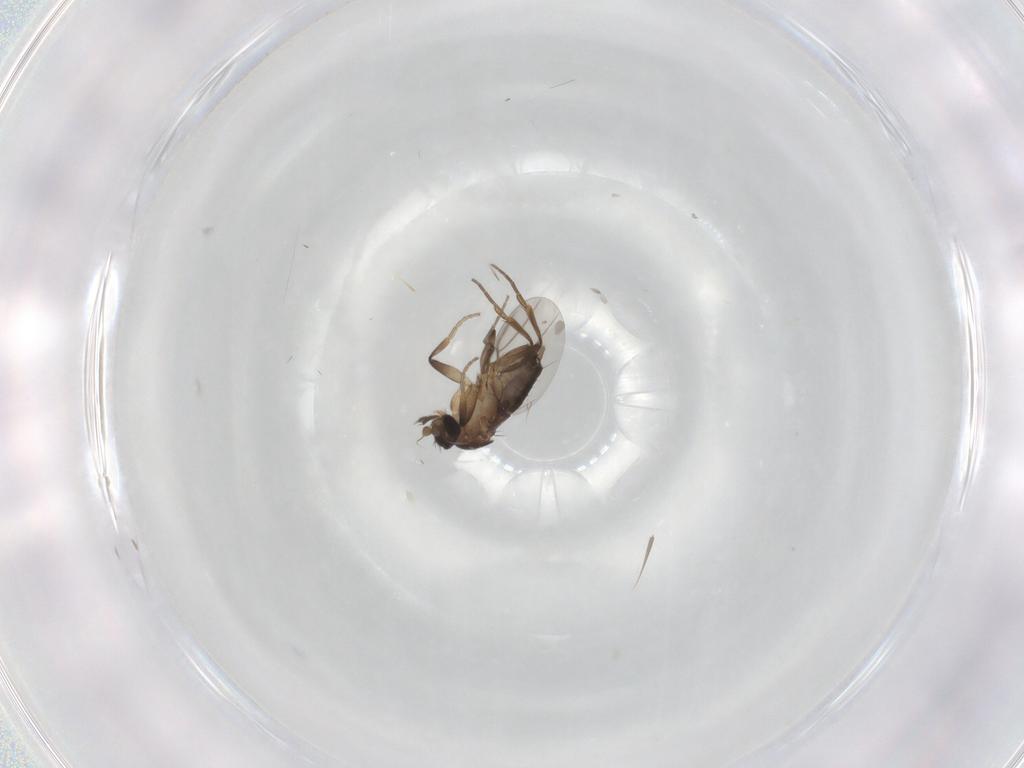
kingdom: Animalia
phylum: Arthropoda
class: Insecta
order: Diptera
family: Phoridae
